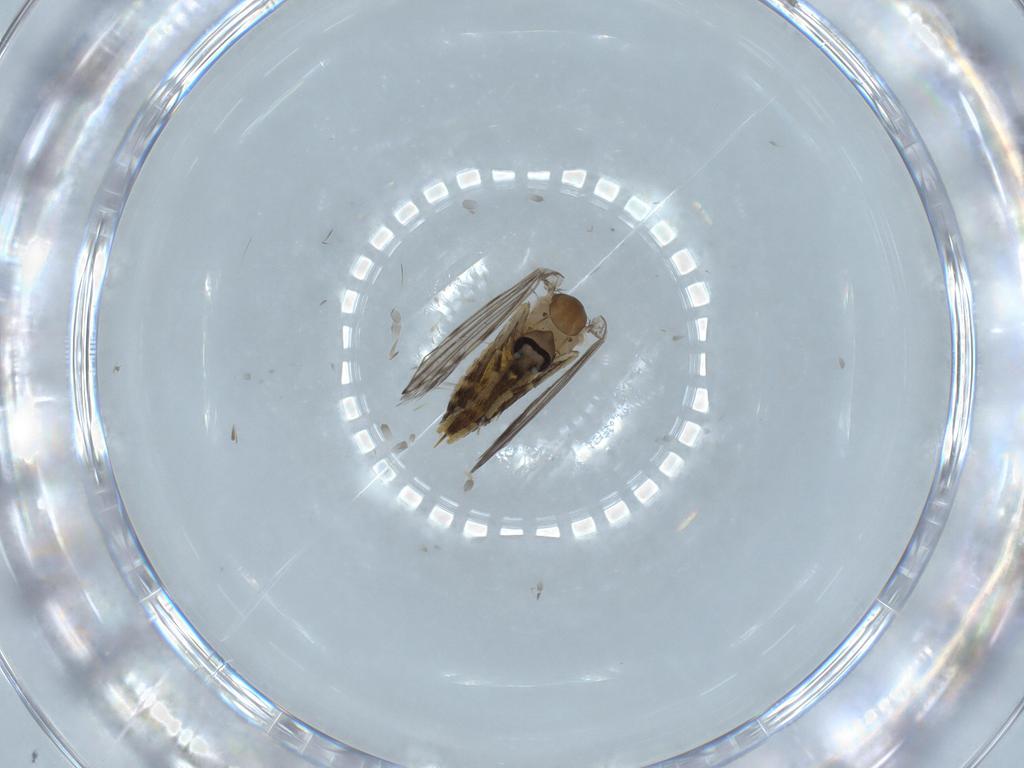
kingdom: Animalia
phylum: Arthropoda
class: Insecta
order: Diptera
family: Psychodidae
